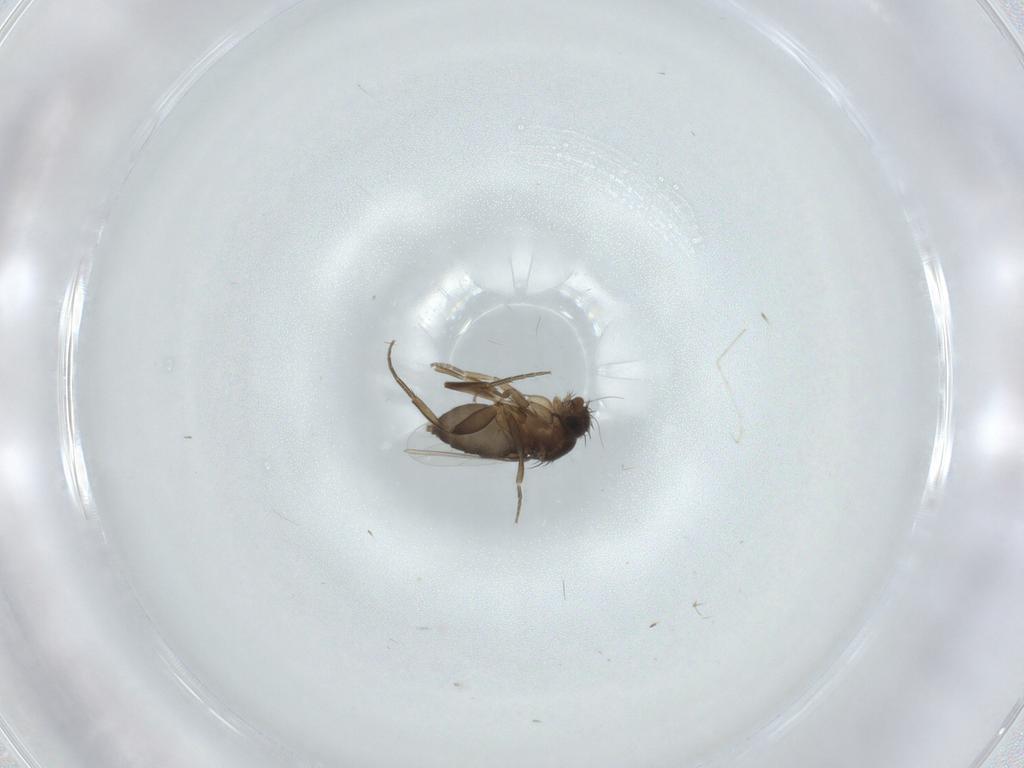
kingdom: Animalia
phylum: Arthropoda
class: Insecta
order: Diptera
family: Phoridae
